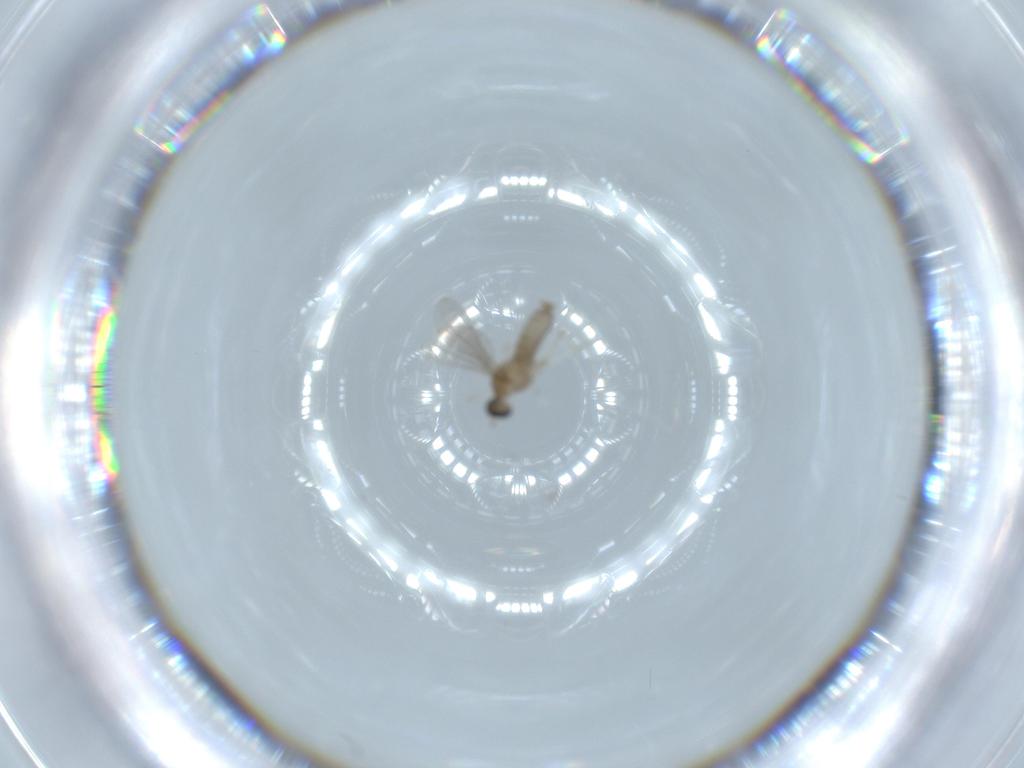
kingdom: Animalia
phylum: Arthropoda
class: Insecta
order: Diptera
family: Cecidomyiidae
